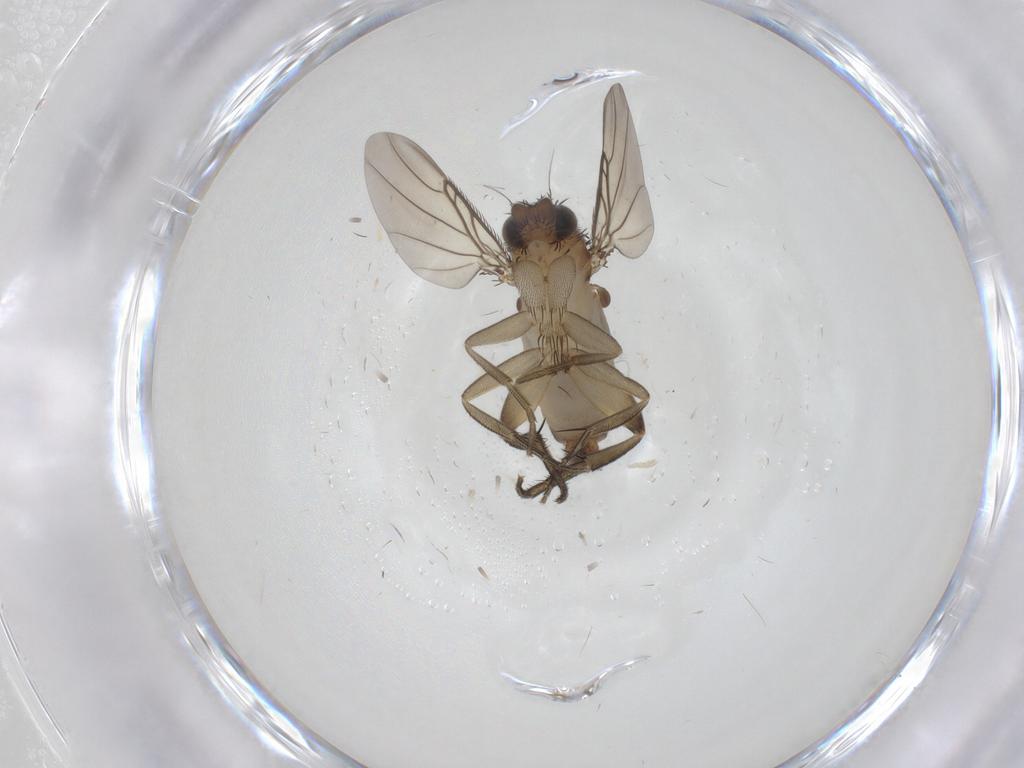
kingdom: Animalia
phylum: Arthropoda
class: Insecta
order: Diptera
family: Phoridae
